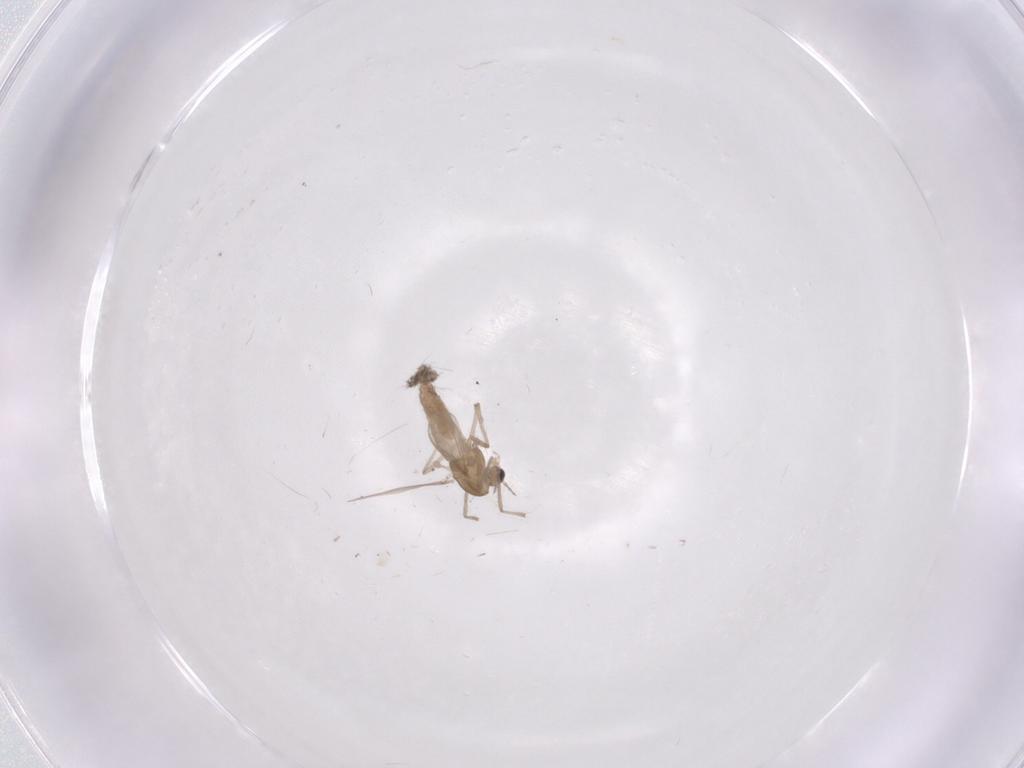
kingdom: Animalia
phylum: Arthropoda
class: Insecta
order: Diptera
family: Chironomidae
